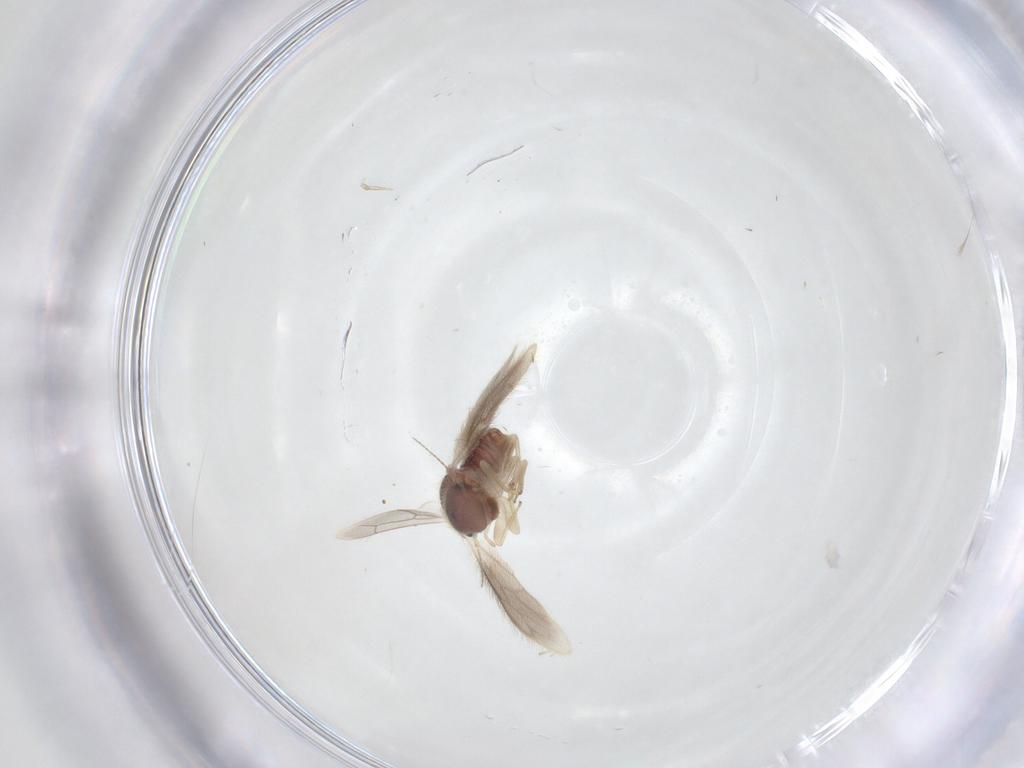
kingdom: Animalia
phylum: Arthropoda
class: Insecta
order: Psocodea
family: Archipsocidae
